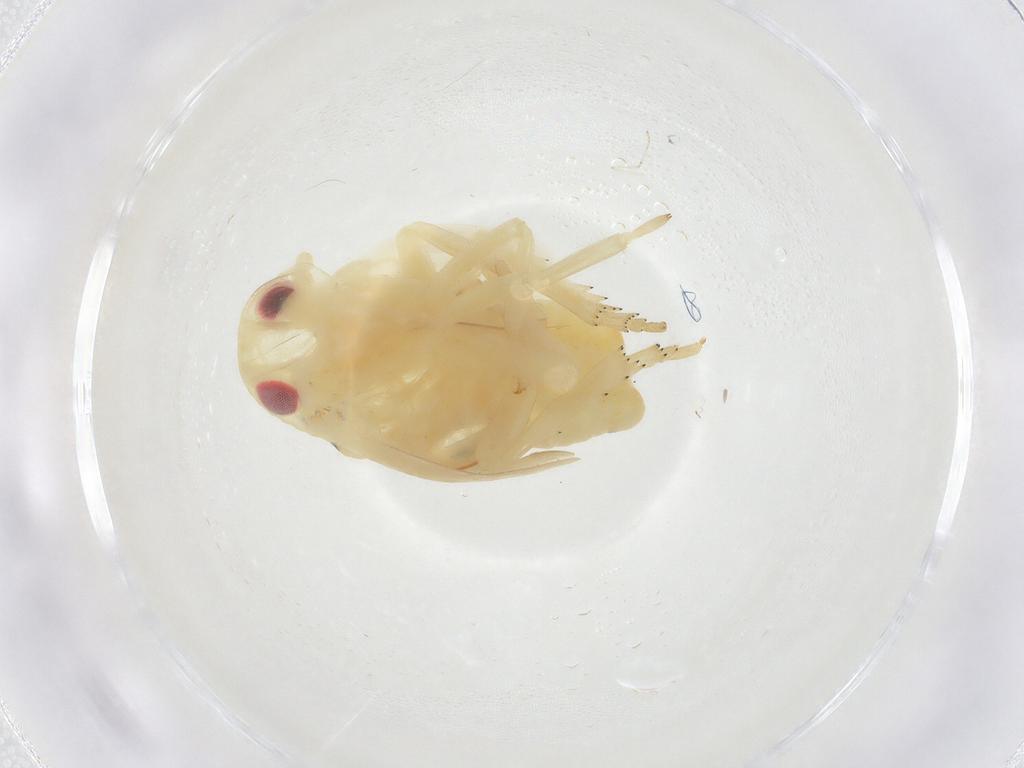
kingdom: Animalia
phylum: Arthropoda
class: Insecta
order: Hemiptera
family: Flatidae
